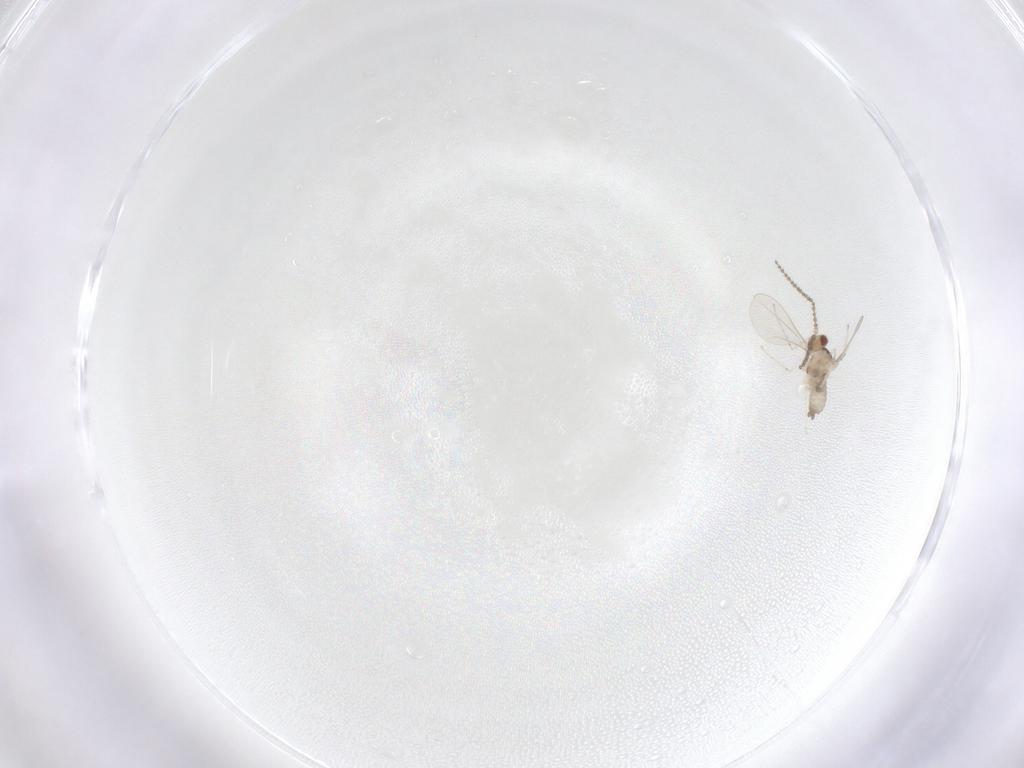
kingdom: Animalia
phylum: Arthropoda
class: Insecta
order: Diptera
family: Cecidomyiidae
